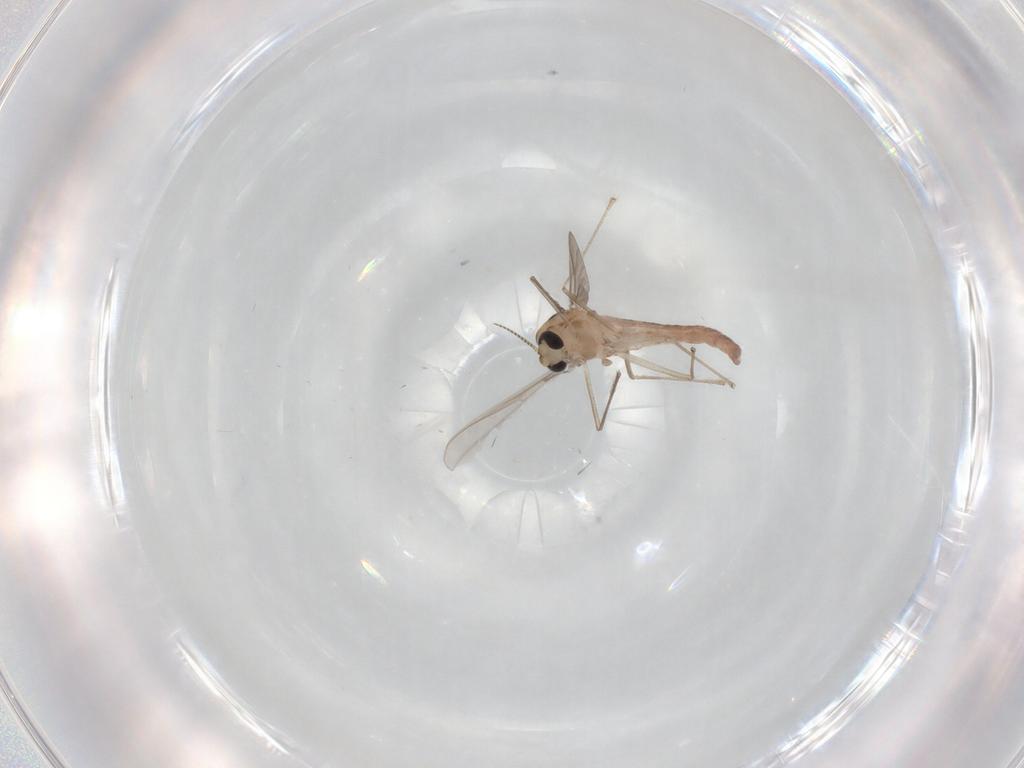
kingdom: Animalia
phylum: Arthropoda
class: Insecta
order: Diptera
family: Chironomidae
